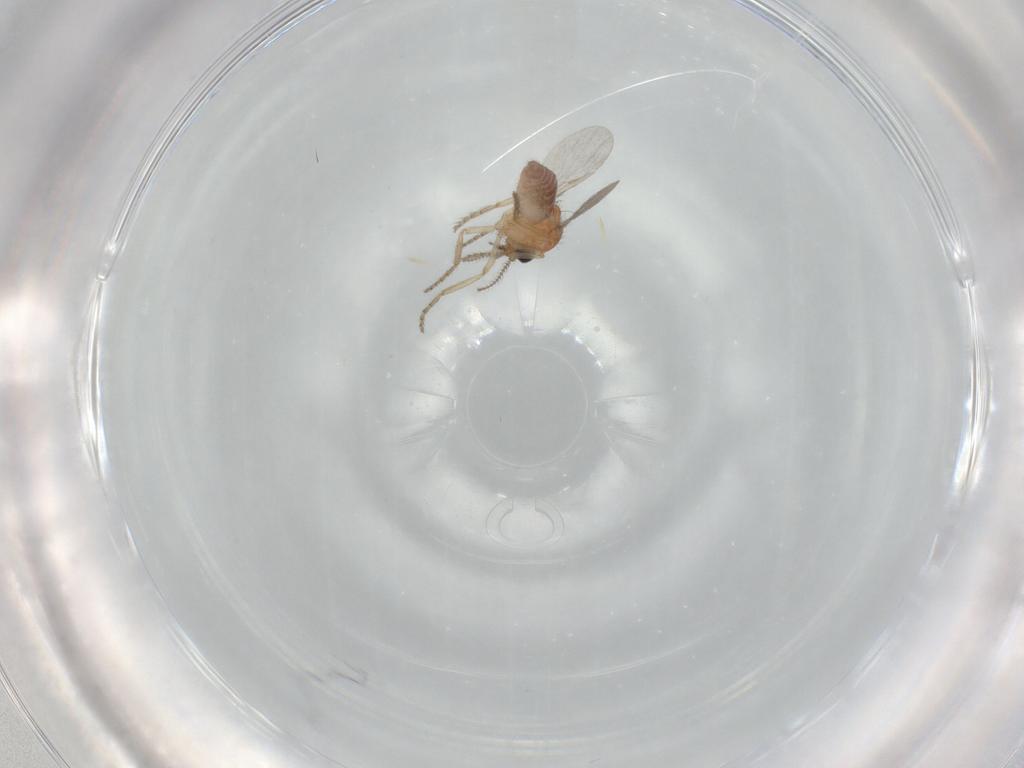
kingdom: Animalia
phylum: Arthropoda
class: Insecta
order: Diptera
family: Ceratopogonidae
